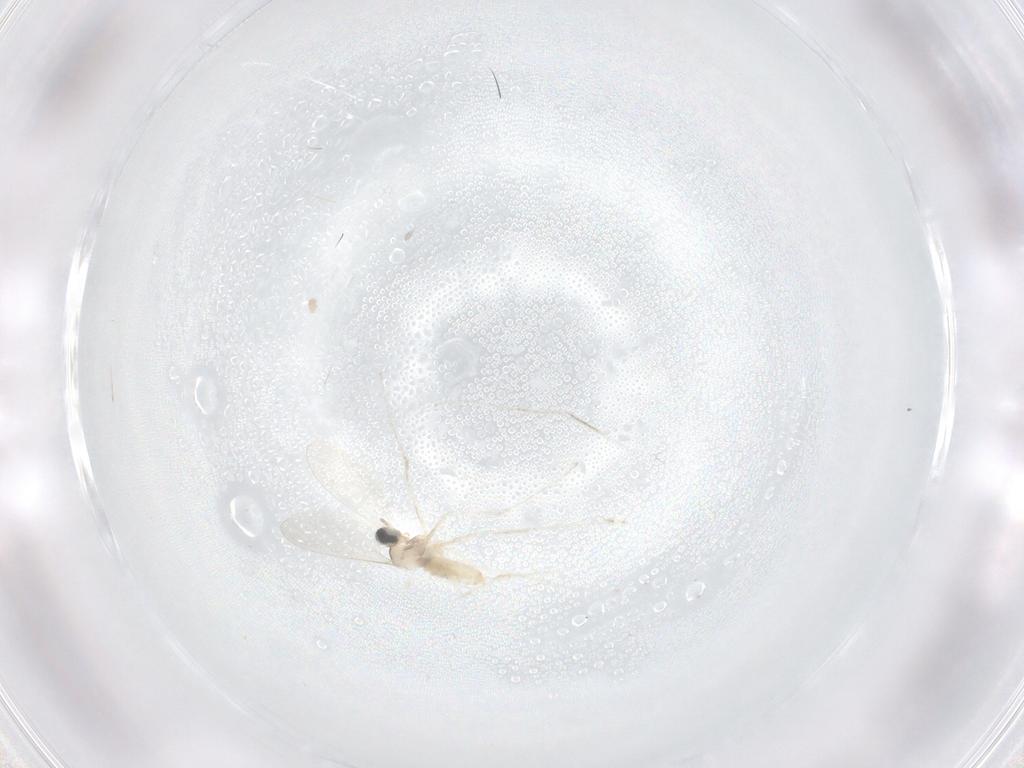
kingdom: Animalia
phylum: Arthropoda
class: Insecta
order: Diptera
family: Cecidomyiidae
